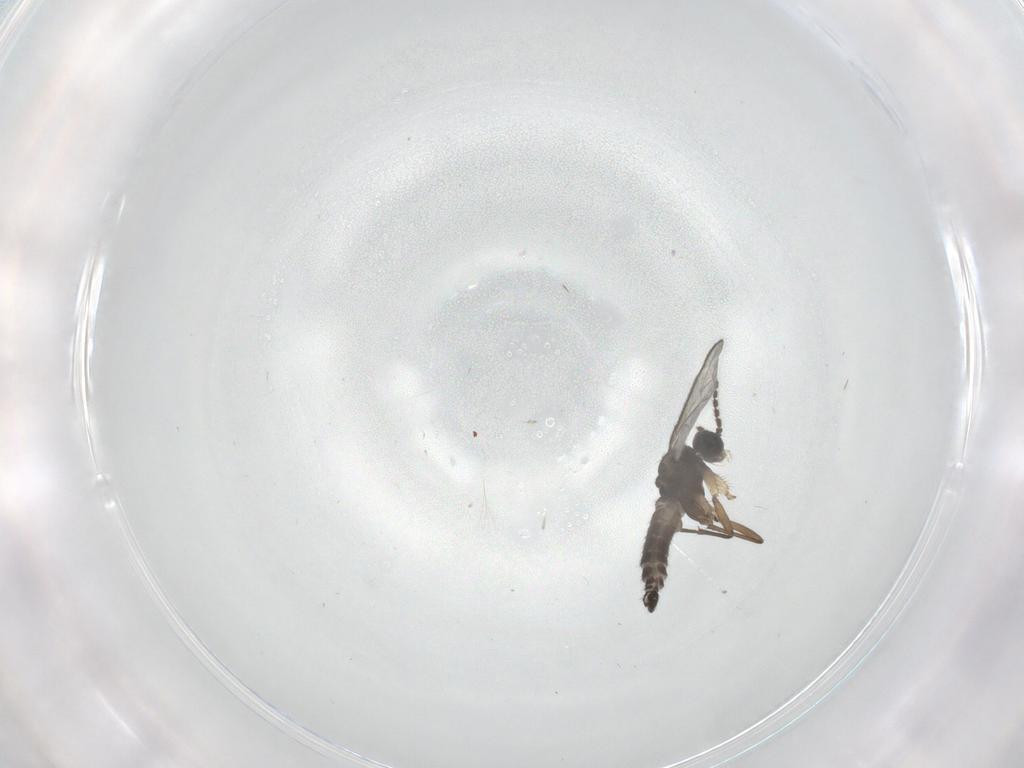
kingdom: Animalia
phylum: Arthropoda
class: Insecta
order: Diptera
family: Sciaridae
